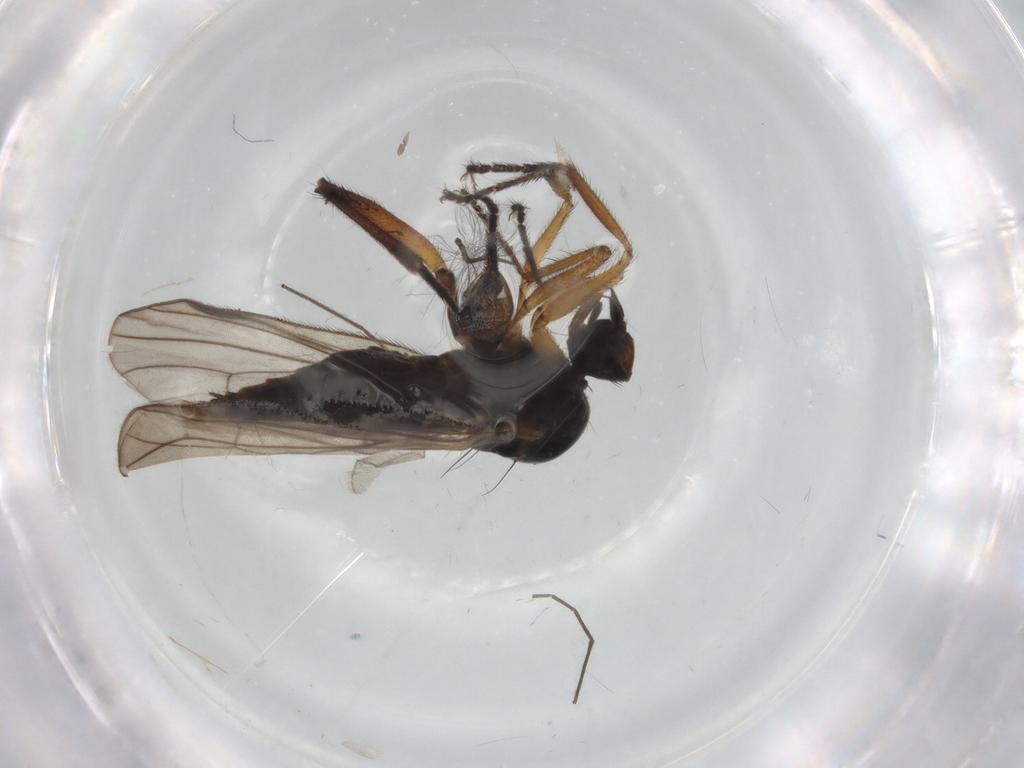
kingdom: Animalia
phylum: Arthropoda
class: Insecta
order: Diptera
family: Hybotidae
